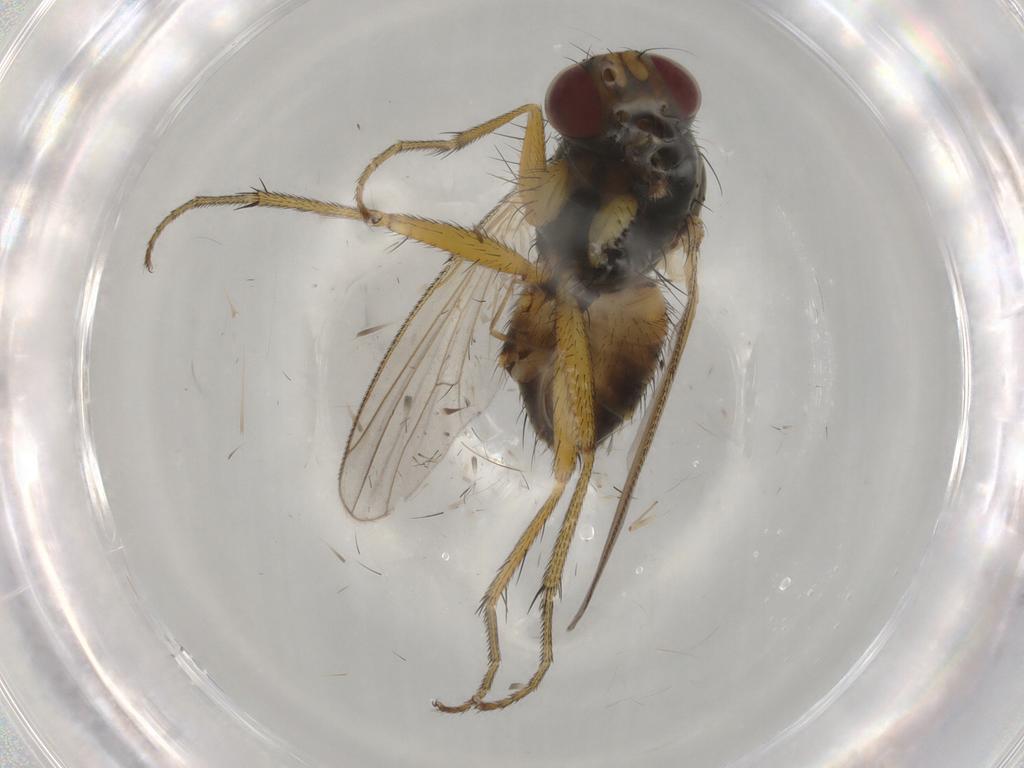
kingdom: Animalia
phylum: Arthropoda
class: Insecta
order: Diptera
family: Muscidae
